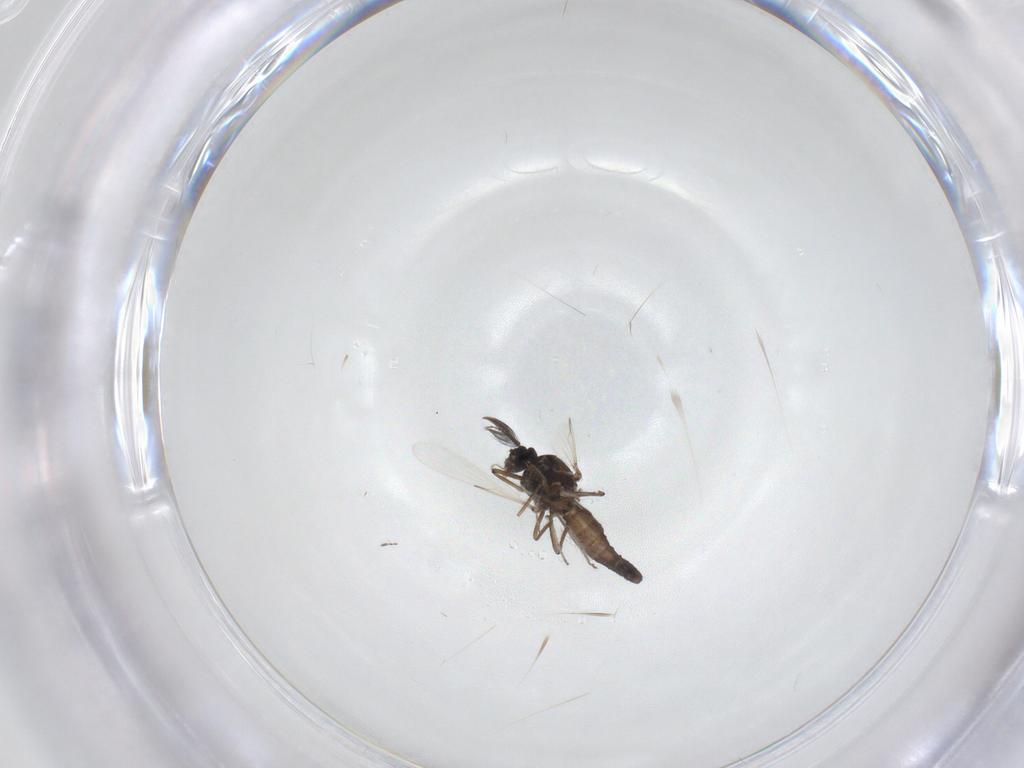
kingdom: Animalia
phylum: Arthropoda
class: Insecta
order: Diptera
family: Ceratopogonidae
